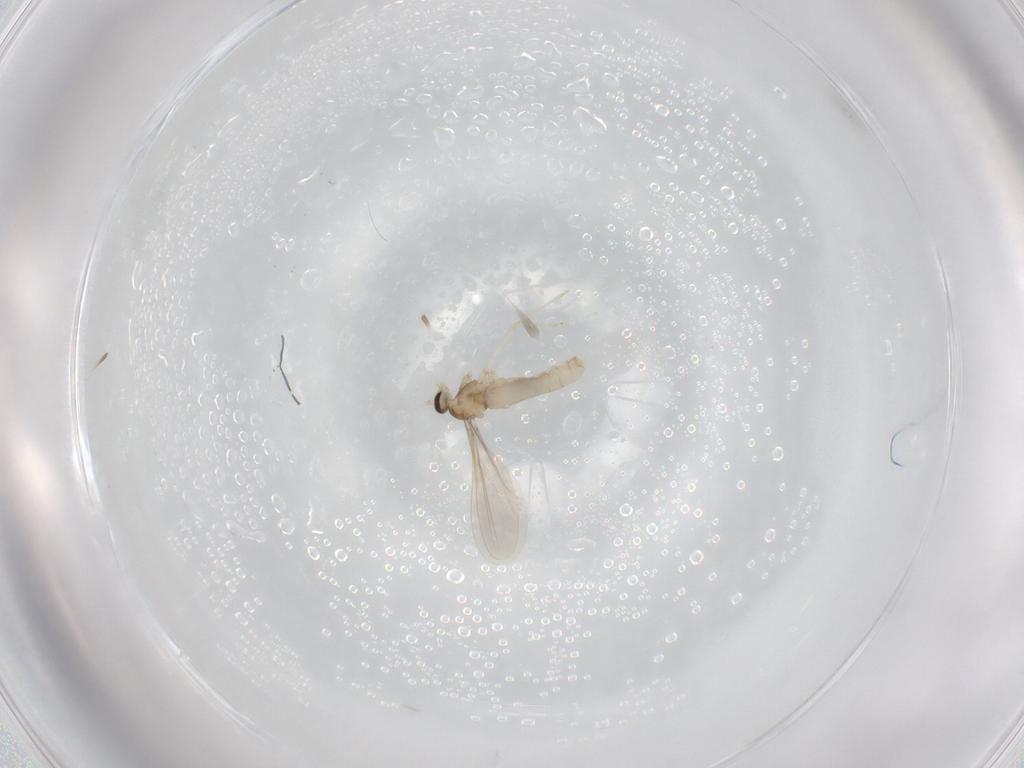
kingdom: Animalia
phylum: Arthropoda
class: Insecta
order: Diptera
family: Cecidomyiidae
